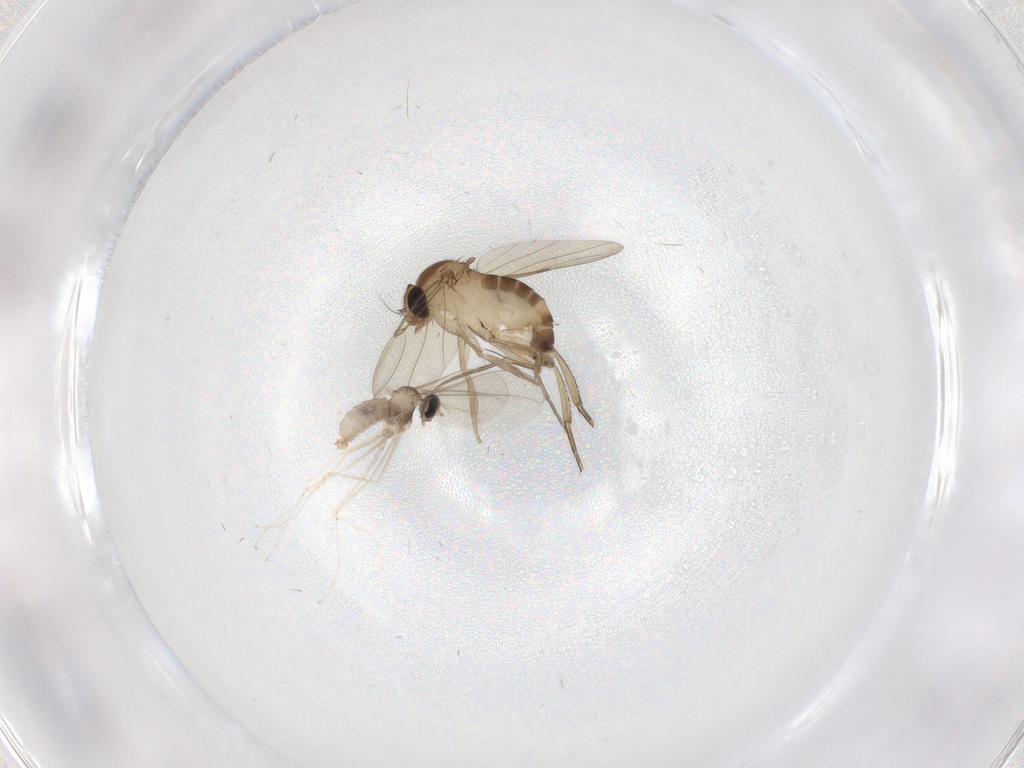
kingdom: Animalia
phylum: Arthropoda
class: Insecta
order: Diptera
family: Phoridae
